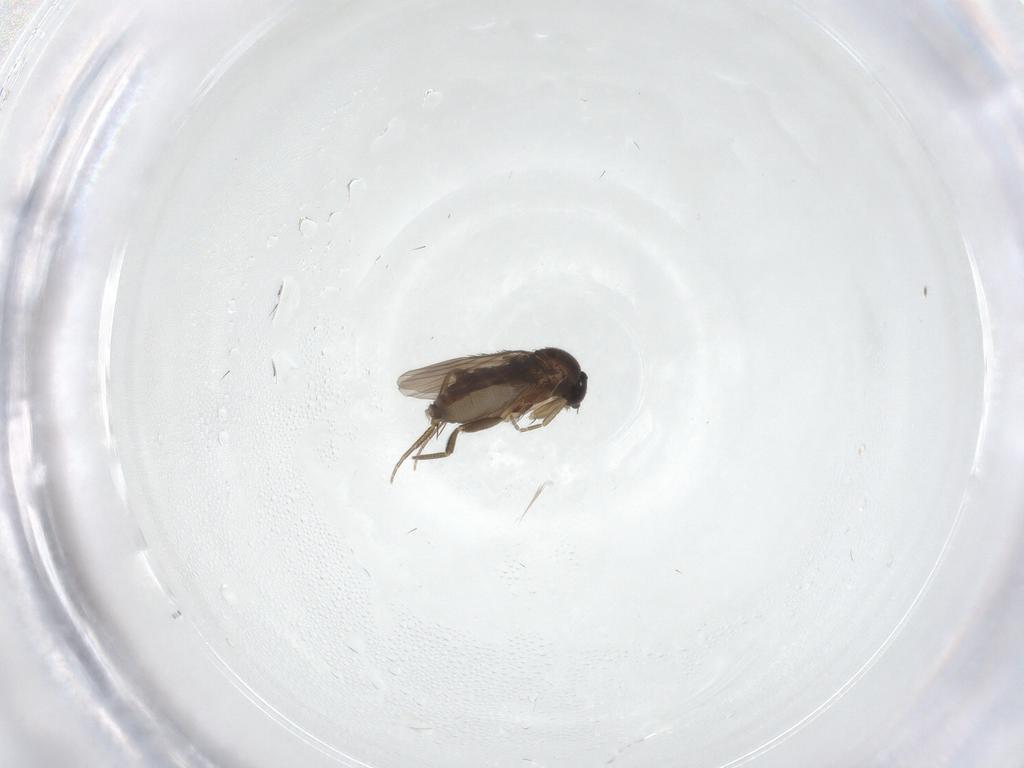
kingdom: Animalia
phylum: Arthropoda
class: Insecta
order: Diptera
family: Phoridae
